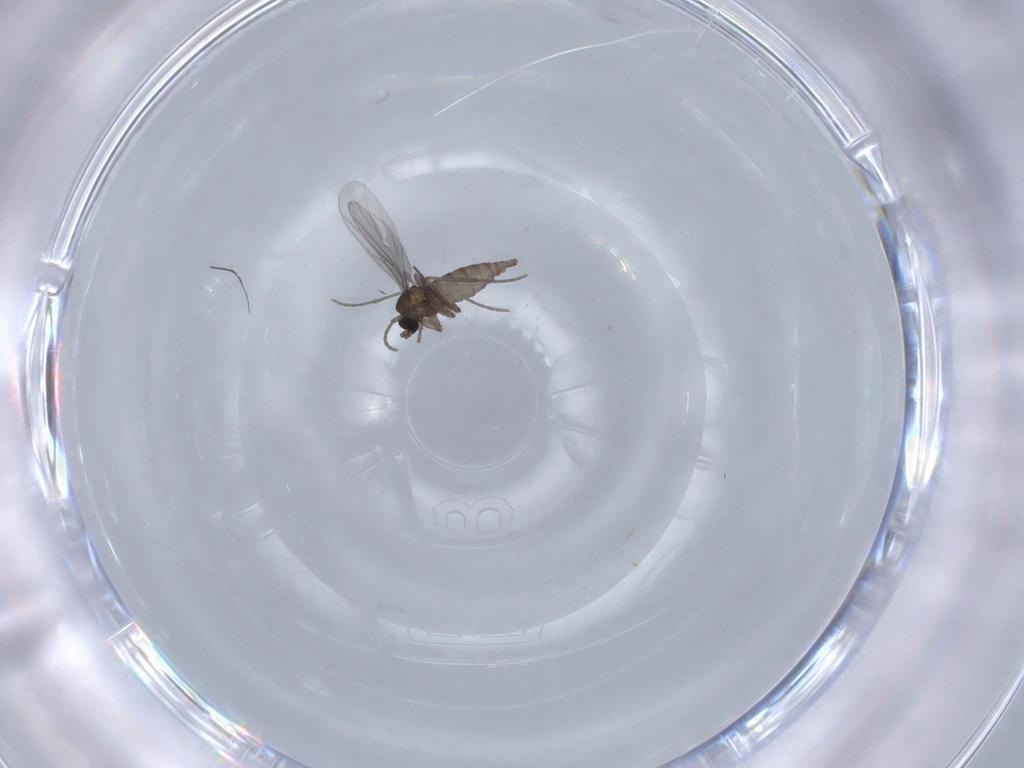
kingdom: Animalia
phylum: Arthropoda
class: Insecta
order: Diptera
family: Sciaridae
